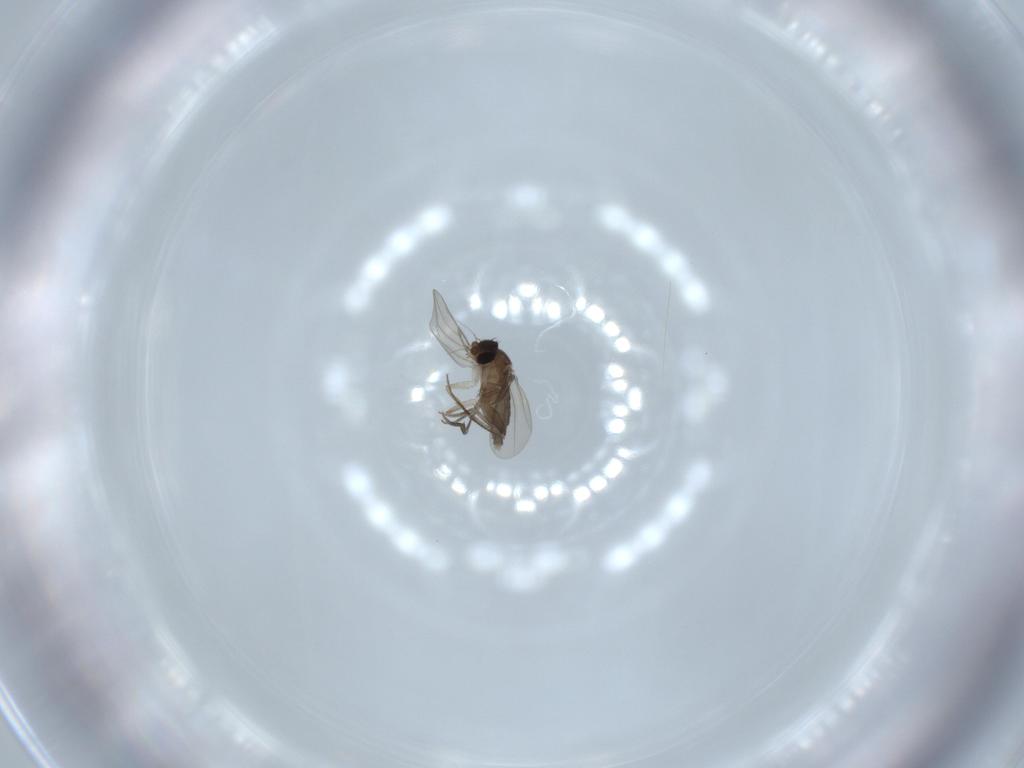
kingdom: Animalia
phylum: Arthropoda
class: Insecta
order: Diptera
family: Phoridae
